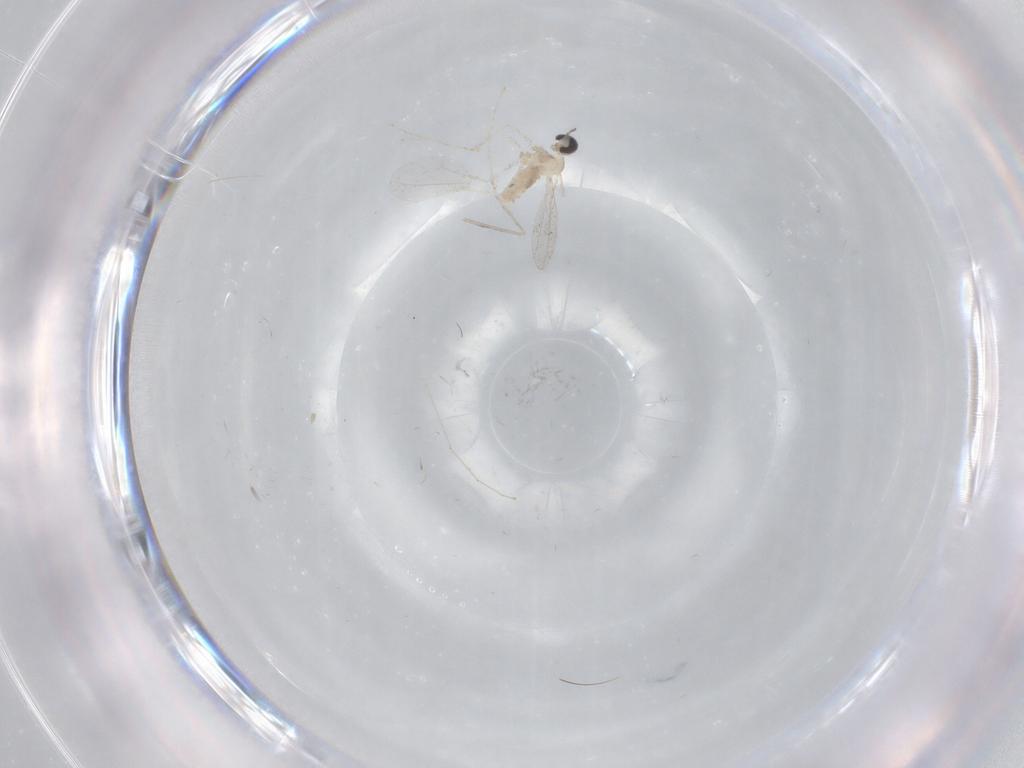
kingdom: Animalia
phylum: Arthropoda
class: Insecta
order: Diptera
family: Cecidomyiidae
